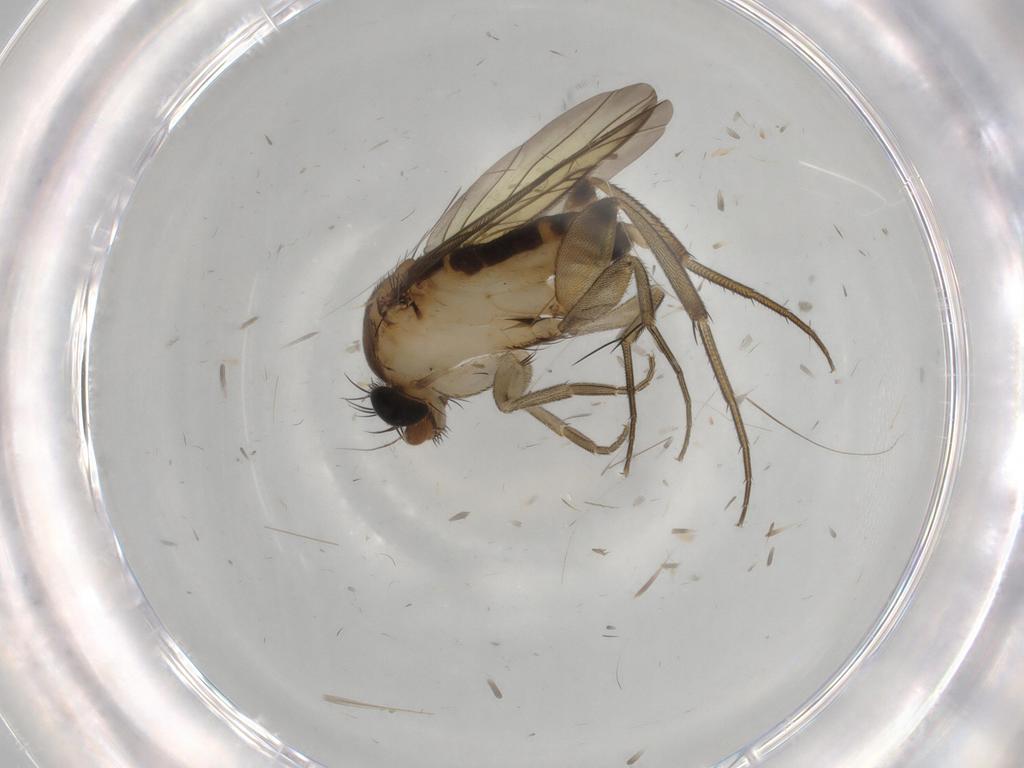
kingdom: Animalia
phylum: Arthropoda
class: Insecta
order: Diptera
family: Phoridae
